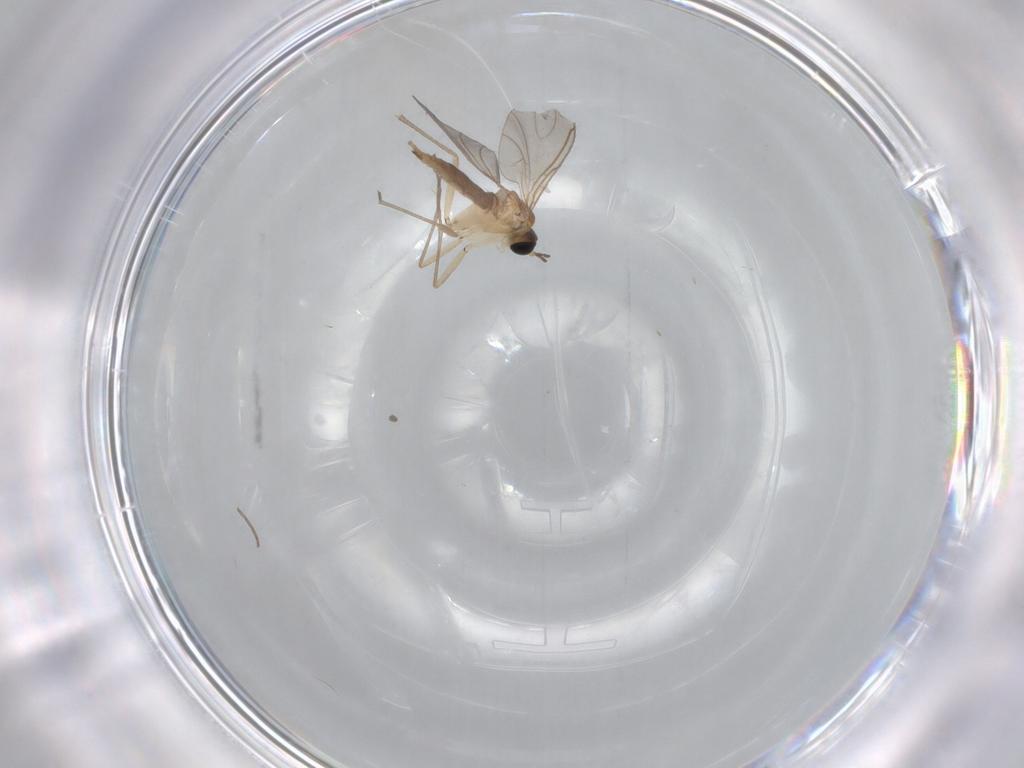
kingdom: Animalia
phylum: Arthropoda
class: Insecta
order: Diptera
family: Sciaridae
